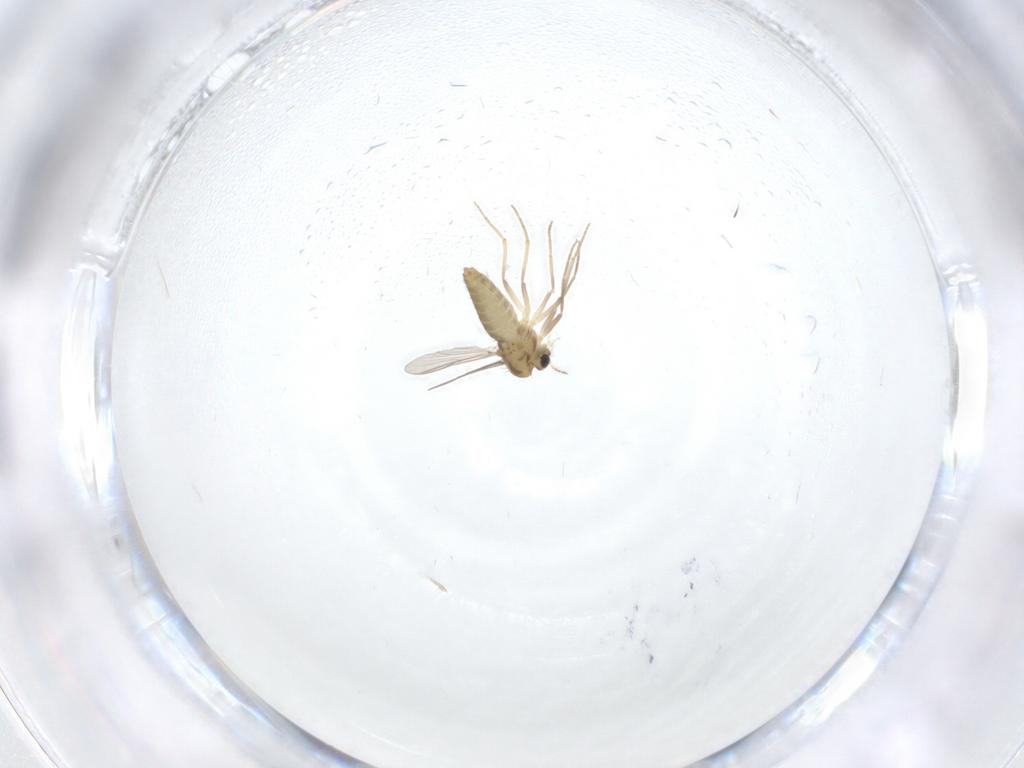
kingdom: Animalia
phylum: Arthropoda
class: Insecta
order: Diptera
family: Chironomidae
